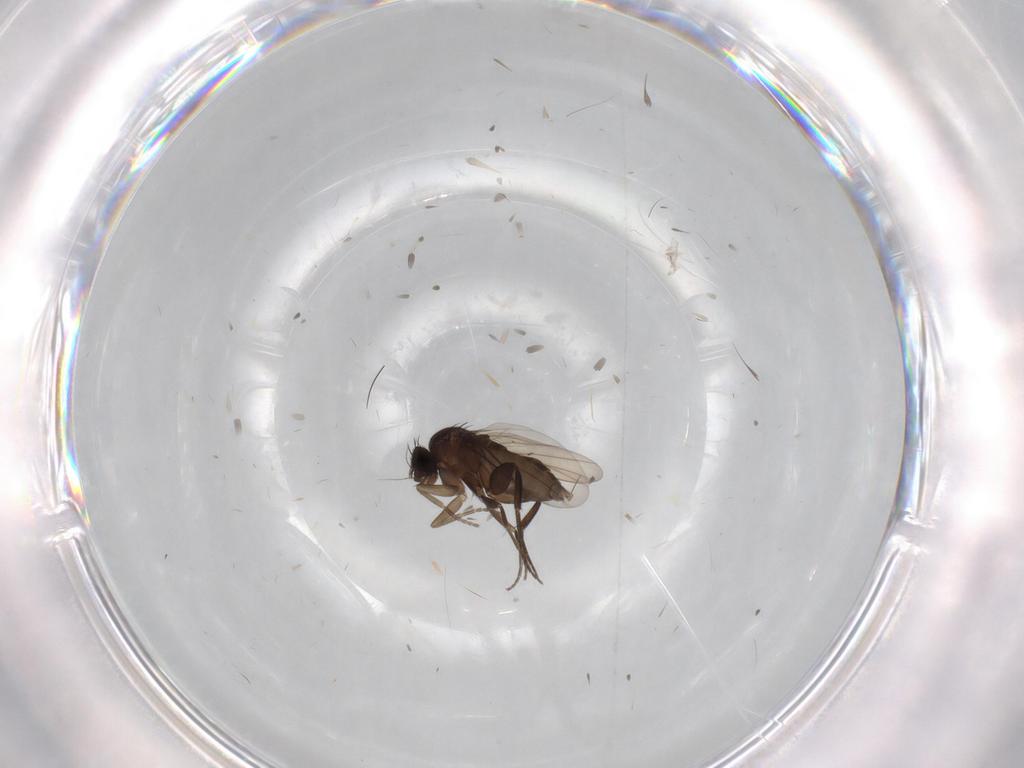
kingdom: Animalia
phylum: Arthropoda
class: Insecta
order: Diptera
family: Phoridae
